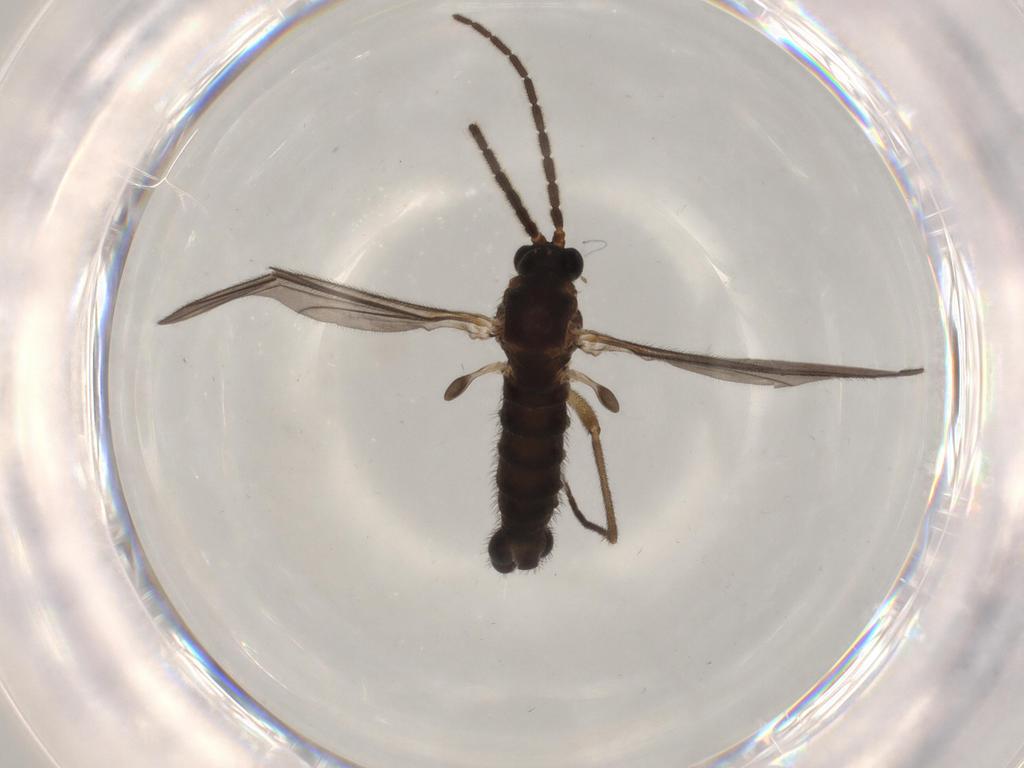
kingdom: Animalia
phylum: Arthropoda
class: Insecta
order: Diptera
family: Sciaridae
